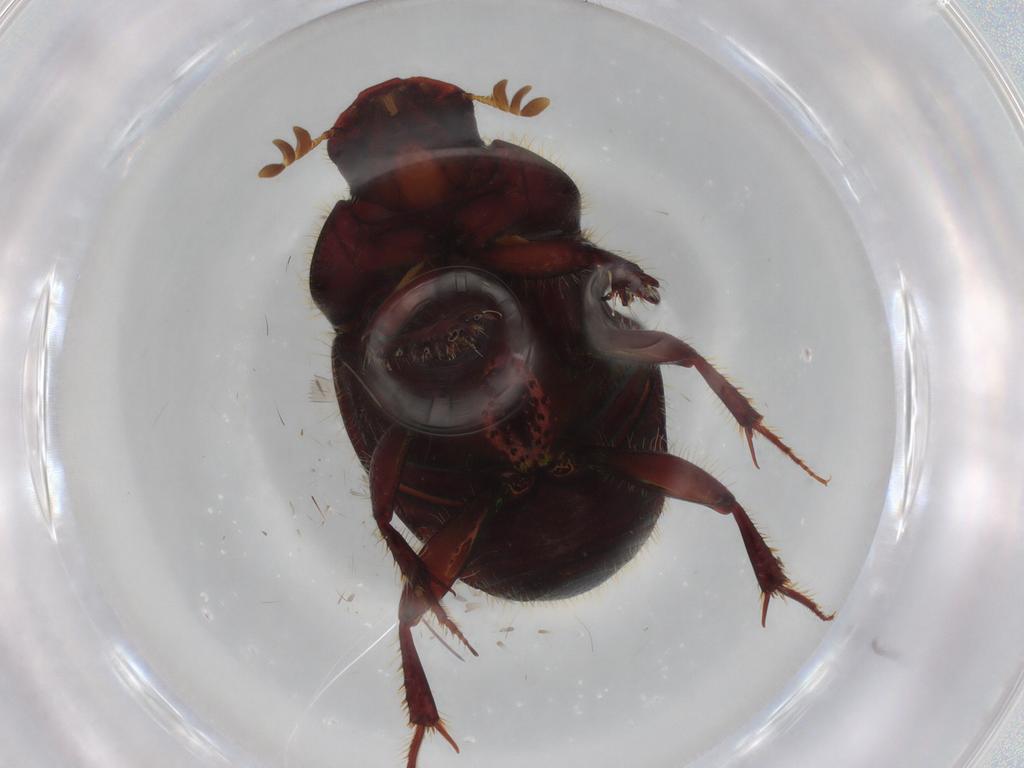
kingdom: Animalia
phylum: Arthropoda
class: Insecta
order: Coleoptera
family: Scarabaeidae
